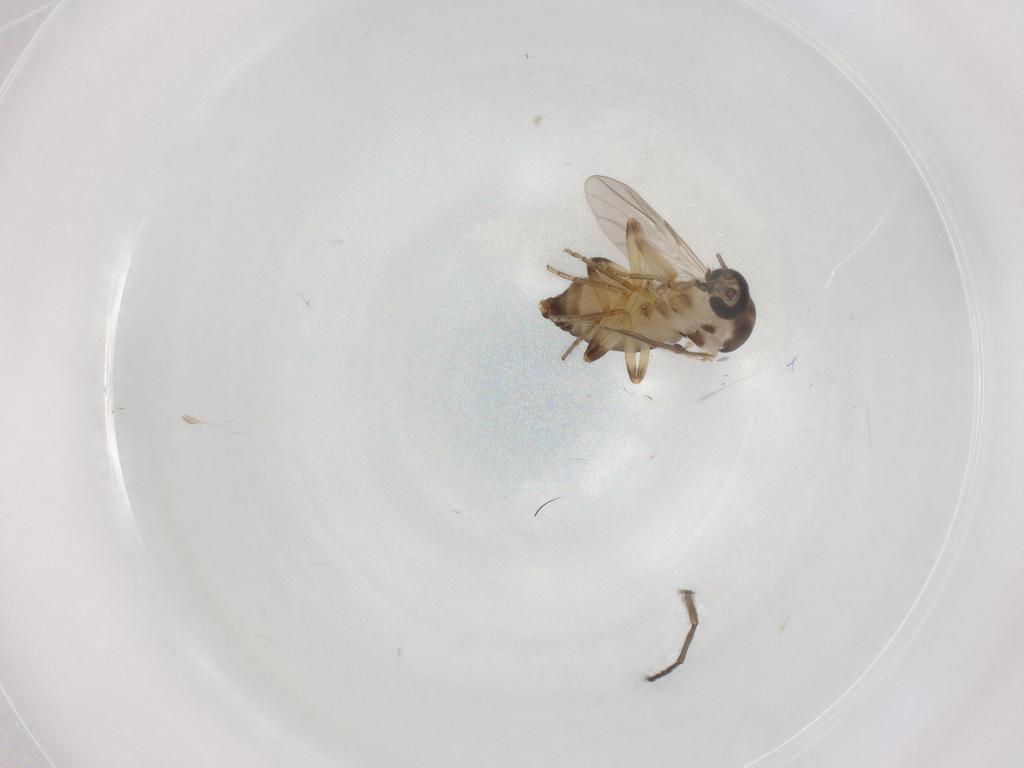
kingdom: Animalia
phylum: Arthropoda
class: Insecta
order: Diptera
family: Ceratopogonidae
